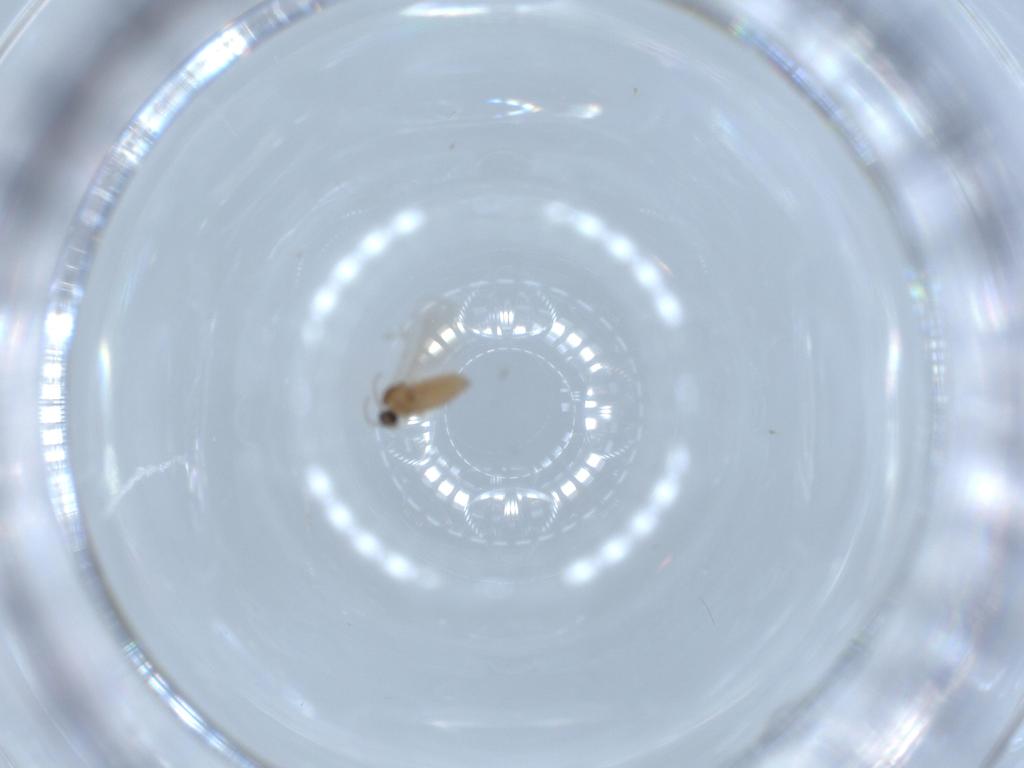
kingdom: Animalia
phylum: Arthropoda
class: Insecta
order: Diptera
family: Cecidomyiidae
